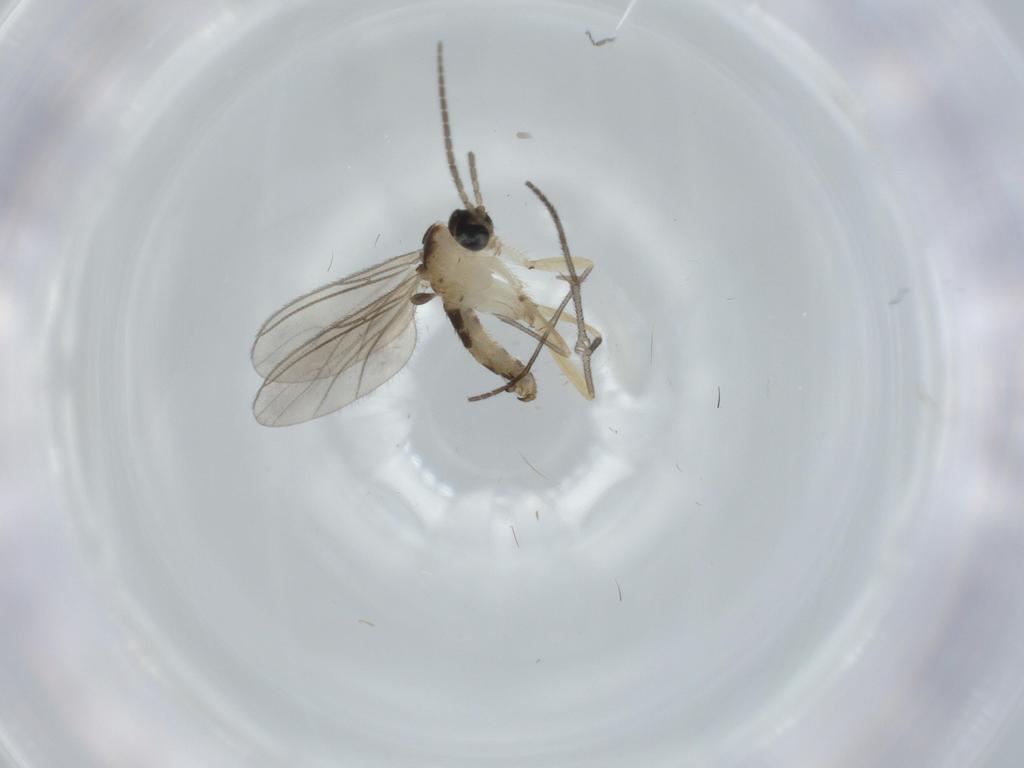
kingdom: Animalia
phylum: Arthropoda
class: Insecta
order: Diptera
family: Sciaridae
